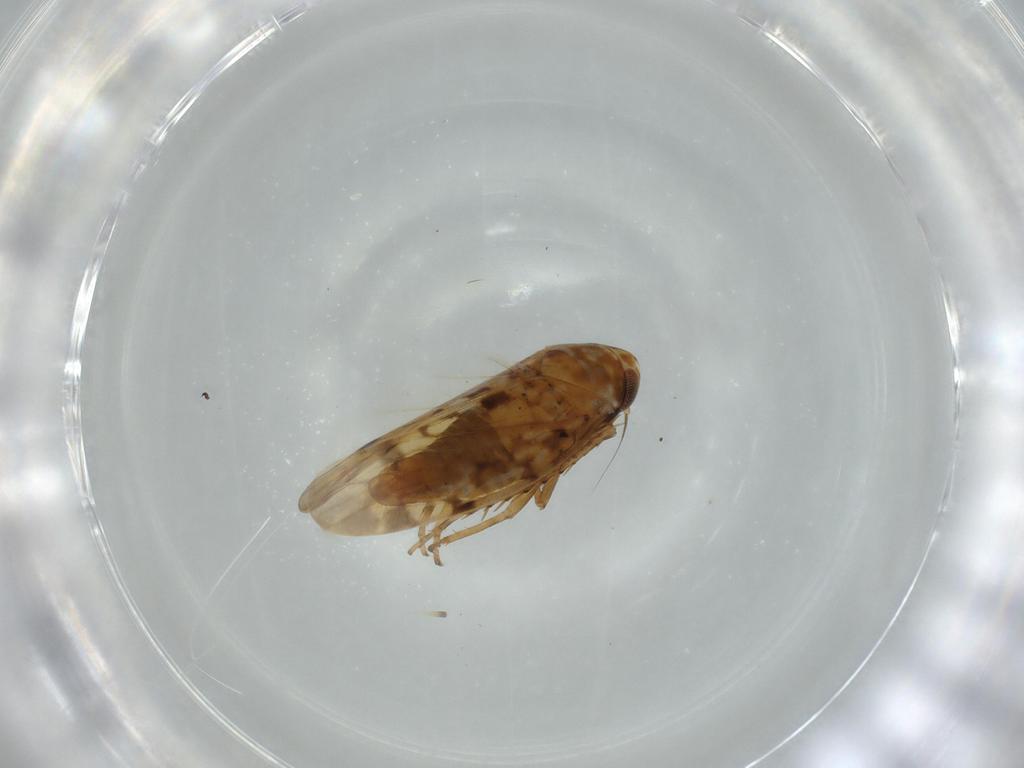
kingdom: Animalia
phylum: Arthropoda
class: Insecta
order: Hemiptera
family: Cicadellidae
